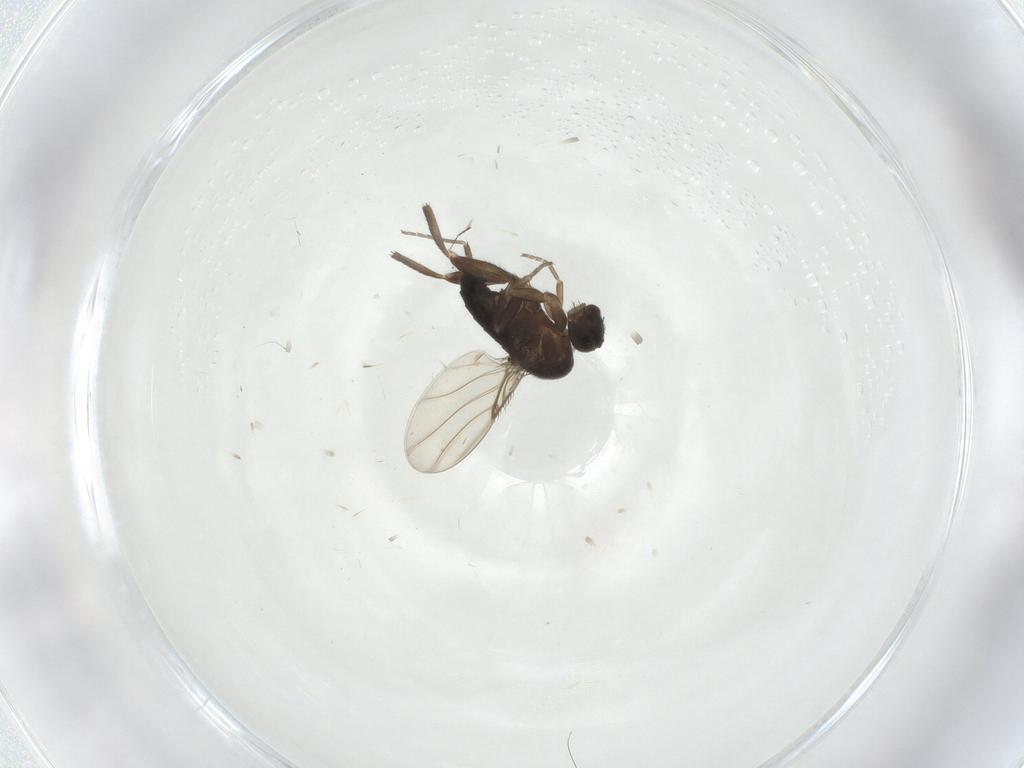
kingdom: Animalia
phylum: Arthropoda
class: Insecta
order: Diptera
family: Phoridae
